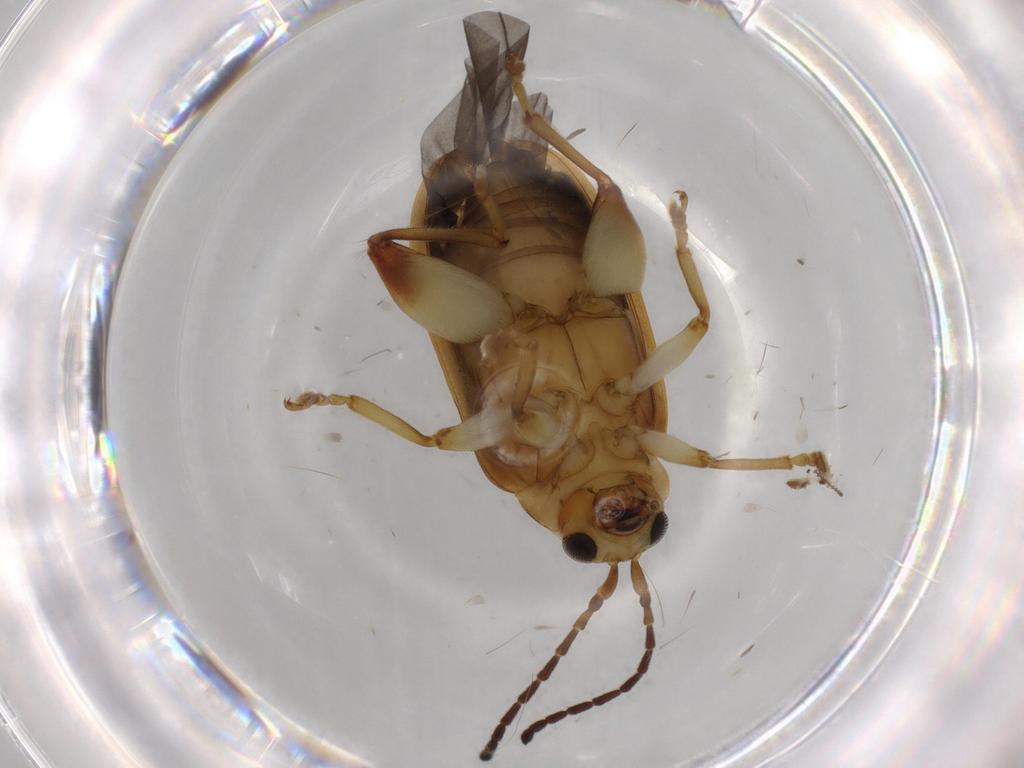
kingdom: Animalia
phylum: Arthropoda
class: Insecta
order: Coleoptera
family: Chrysomelidae
